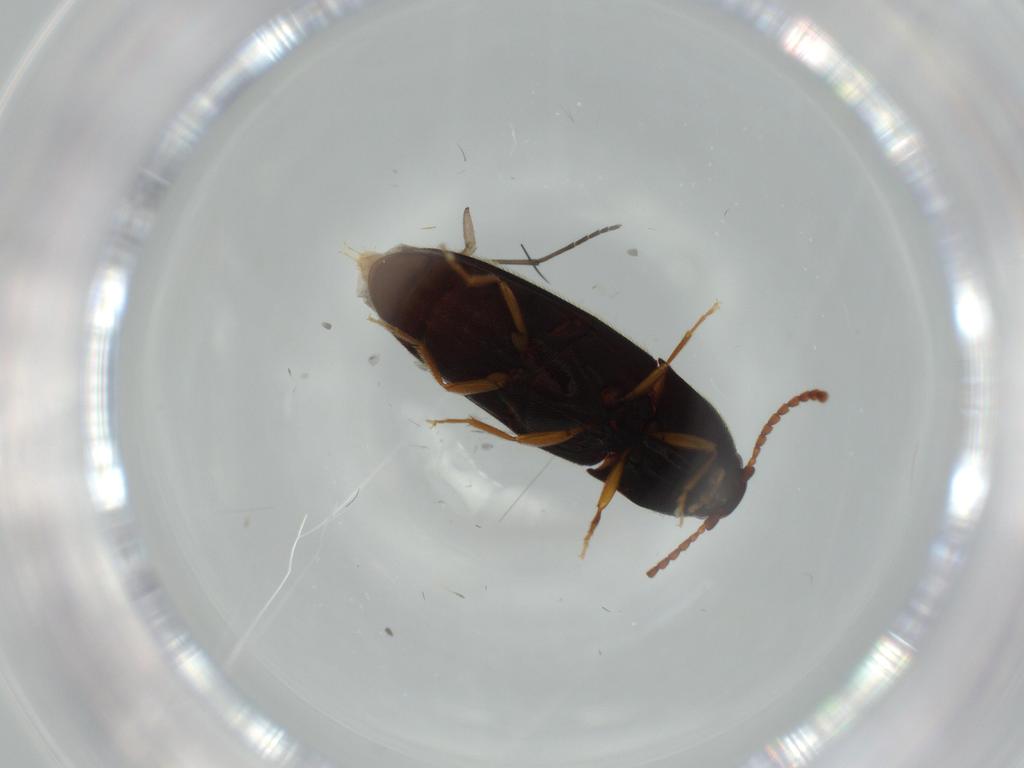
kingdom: Animalia
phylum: Arthropoda
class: Insecta
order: Coleoptera
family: Elateridae
